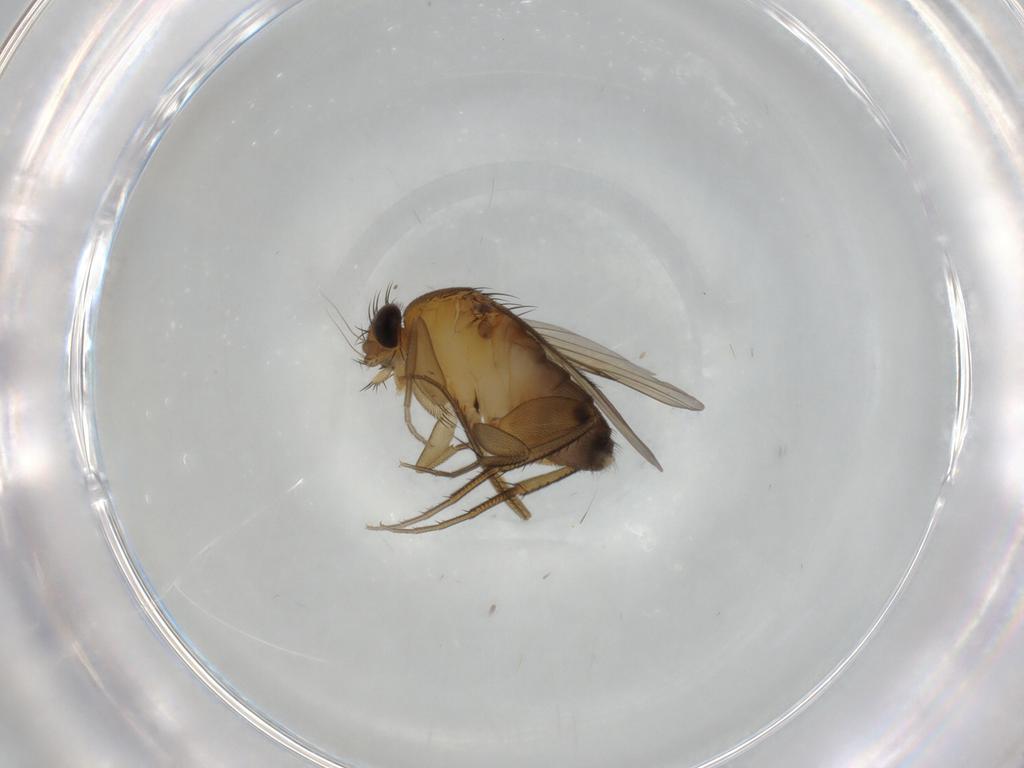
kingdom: Animalia
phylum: Arthropoda
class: Insecta
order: Diptera
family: Phoridae
